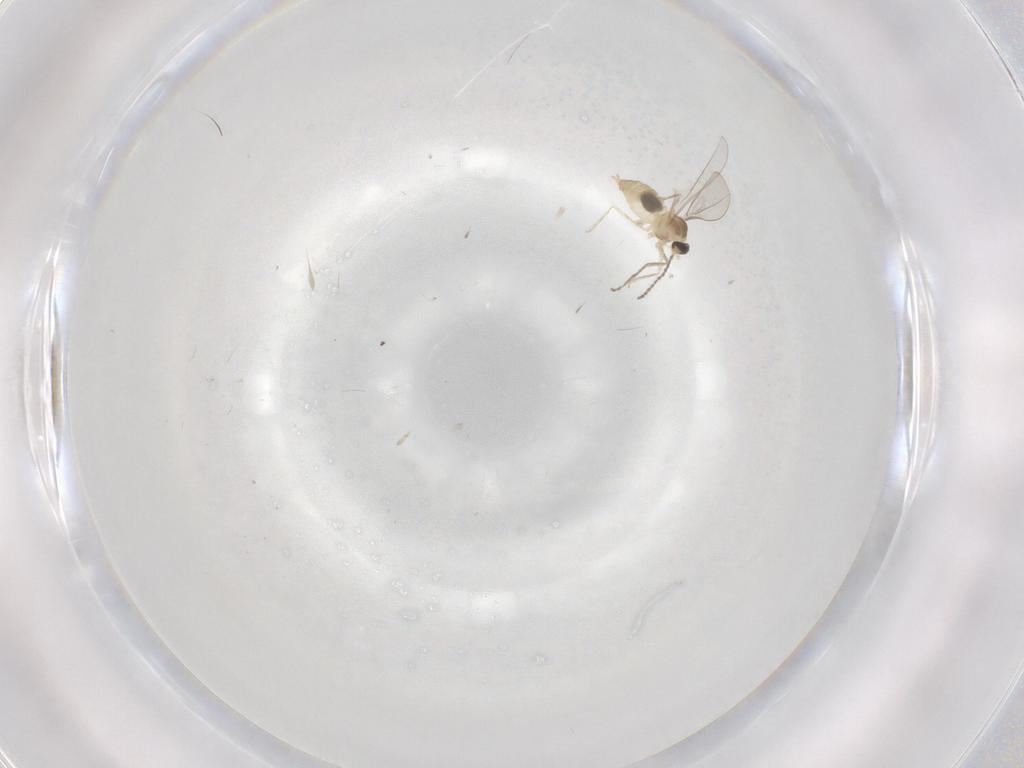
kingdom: Animalia
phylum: Arthropoda
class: Insecta
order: Diptera
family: Cecidomyiidae
